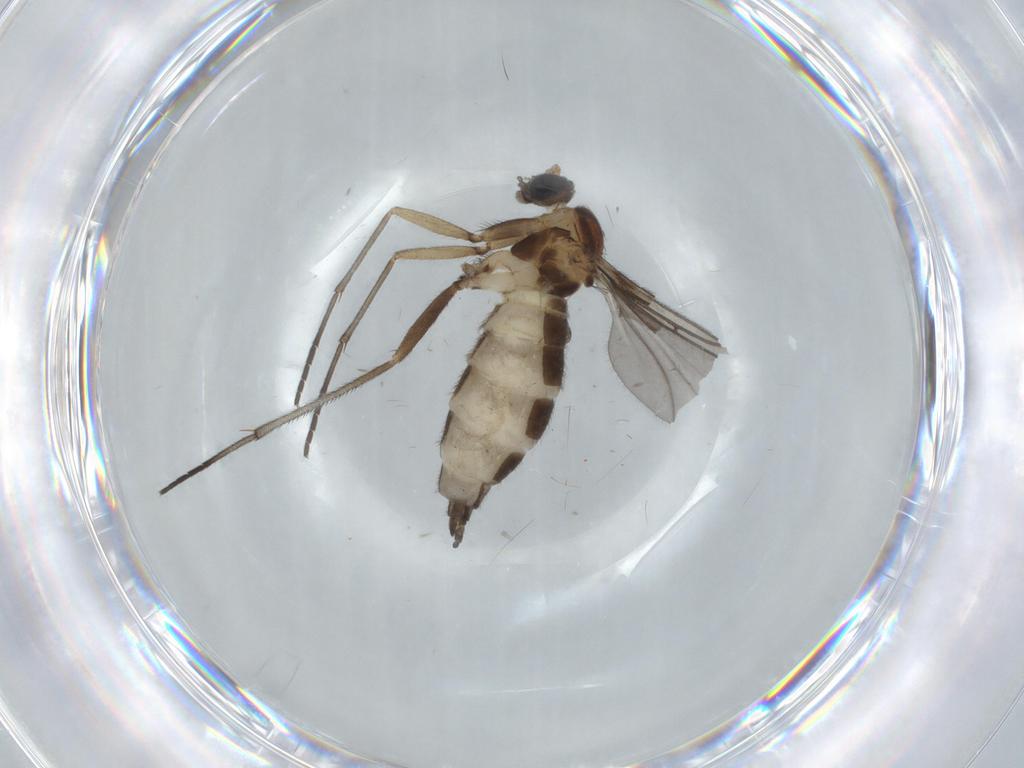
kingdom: Animalia
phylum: Arthropoda
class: Insecta
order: Diptera
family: Sciaridae
